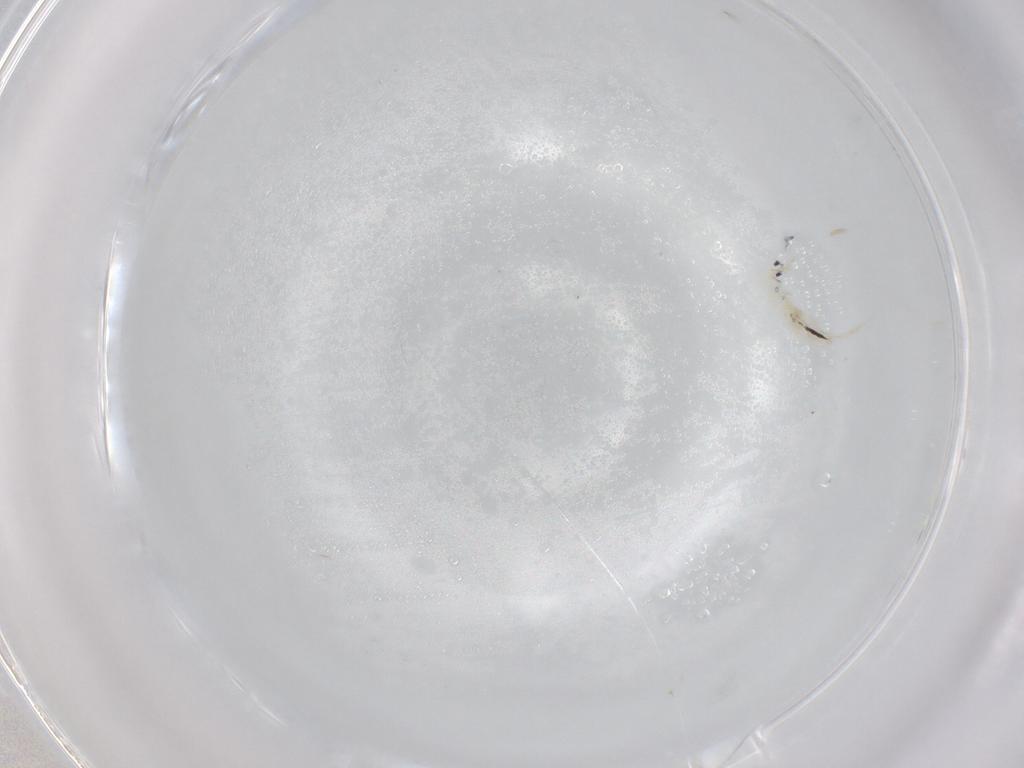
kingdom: Animalia
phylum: Arthropoda
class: Collembola
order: Entomobryomorpha
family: Entomobryidae
